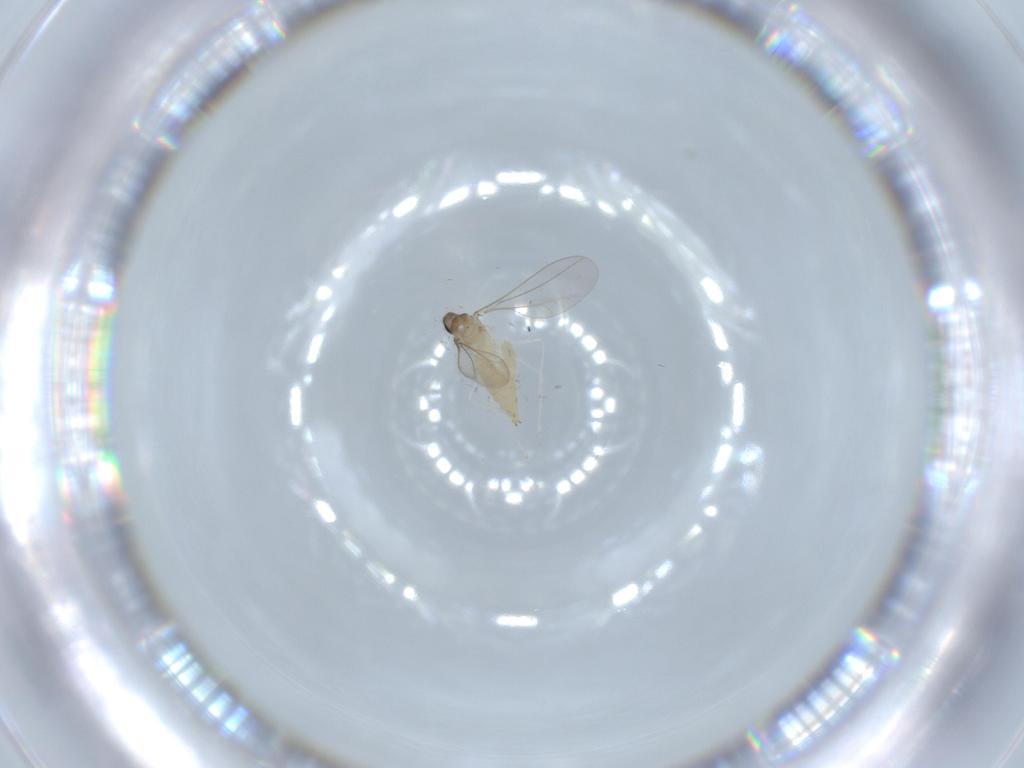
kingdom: Animalia
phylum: Arthropoda
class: Insecta
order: Diptera
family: Cecidomyiidae
